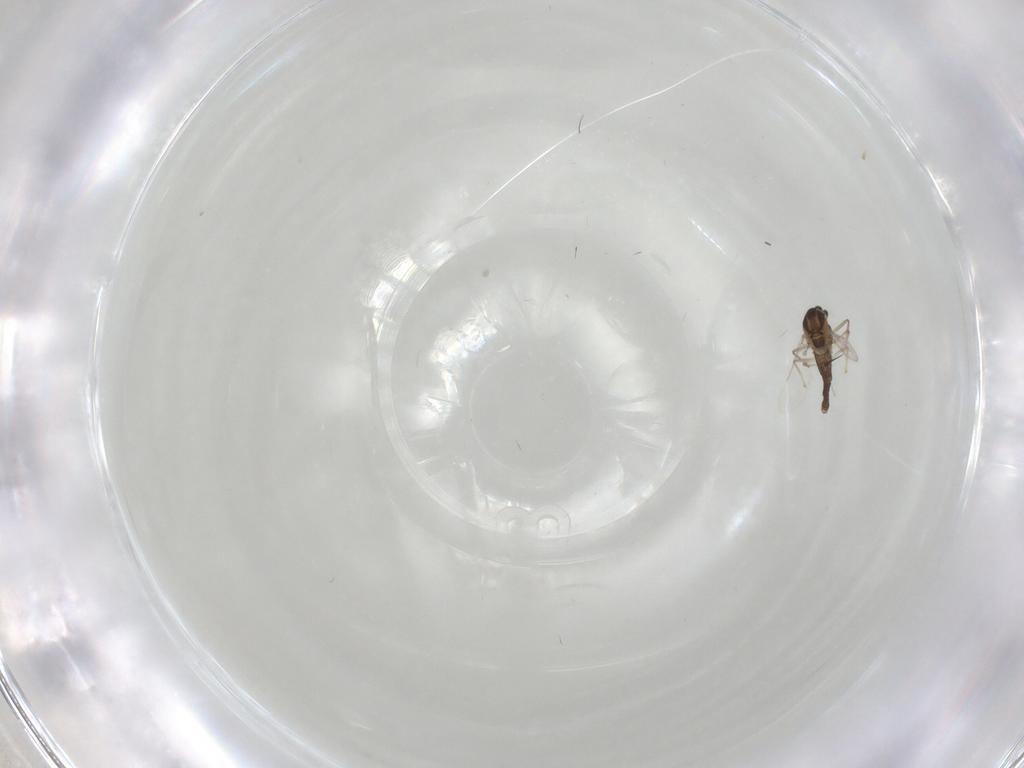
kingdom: Animalia
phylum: Arthropoda
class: Insecta
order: Diptera
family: Chironomidae
